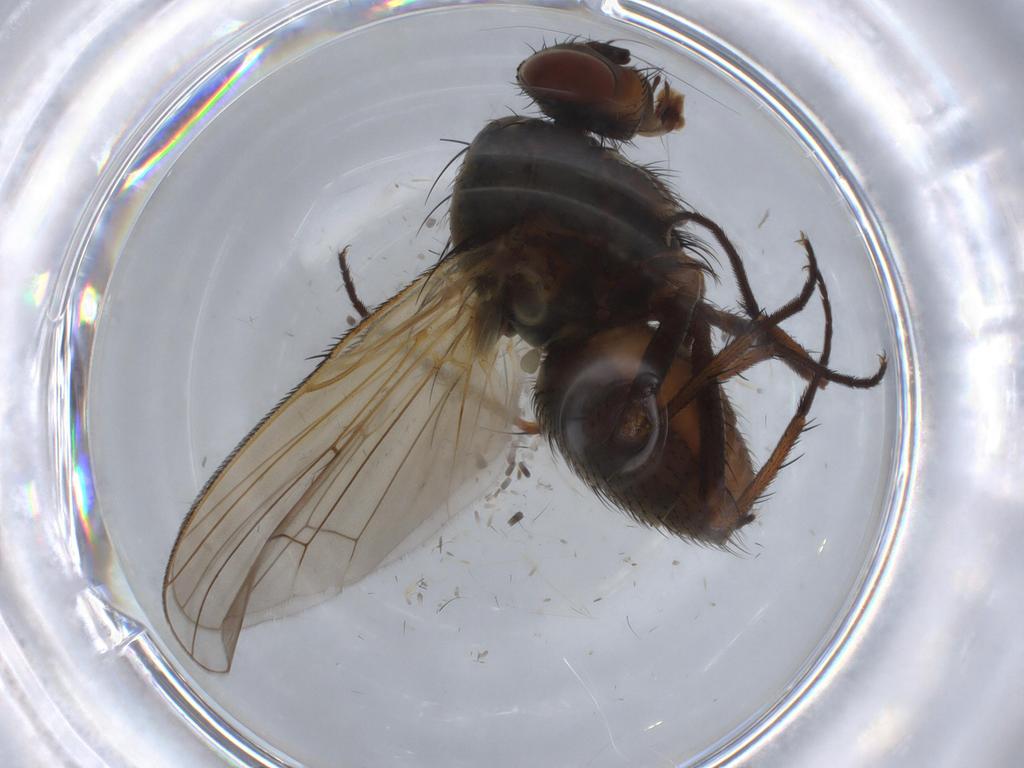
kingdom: Animalia
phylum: Arthropoda
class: Insecta
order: Diptera
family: Anthomyiidae
